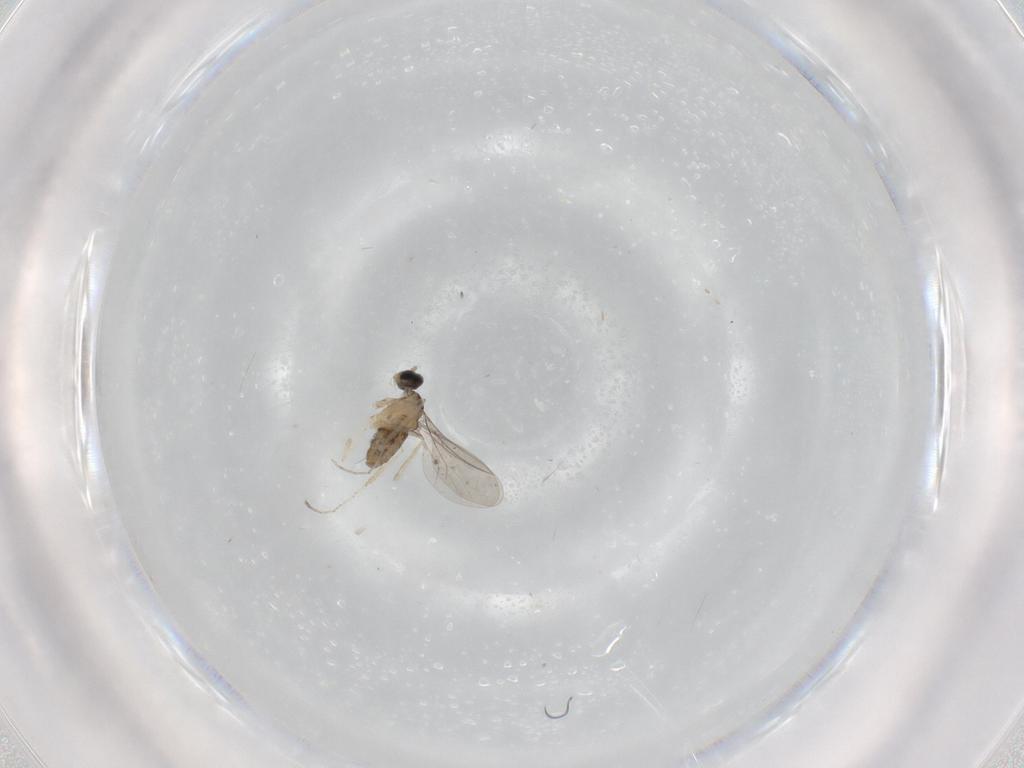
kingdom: Animalia
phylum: Arthropoda
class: Insecta
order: Diptera
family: Cecidomyiidae
